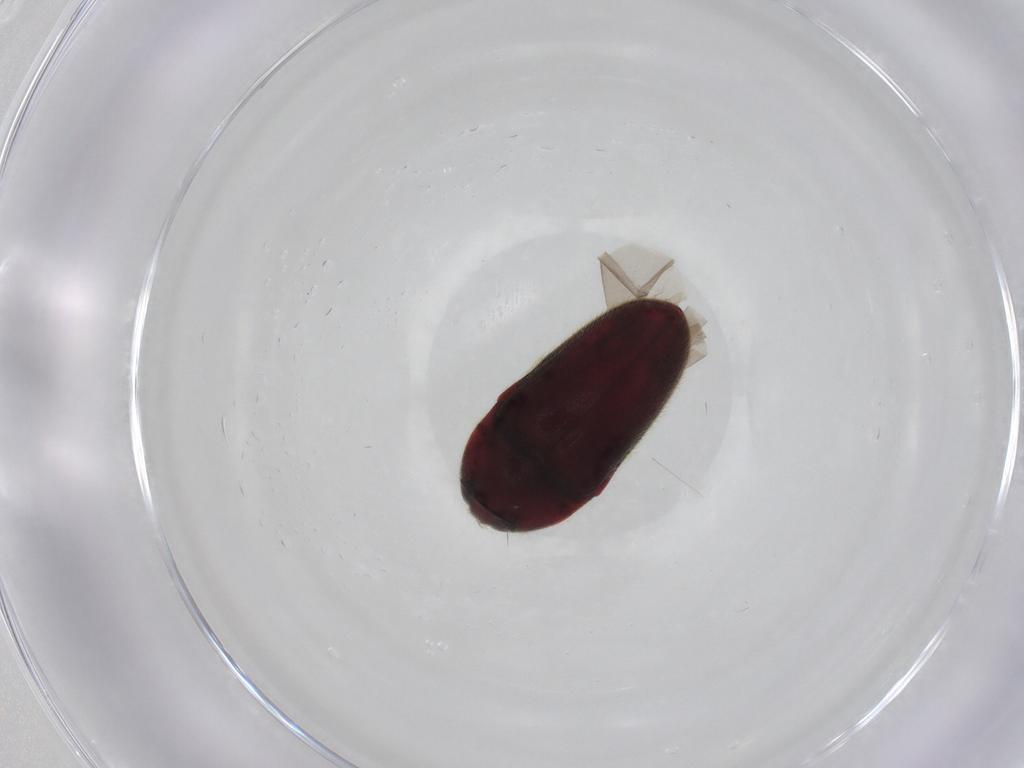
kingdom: Animalia
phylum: Arthropoda
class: Insecta
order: Coleoptera
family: Throscidae
